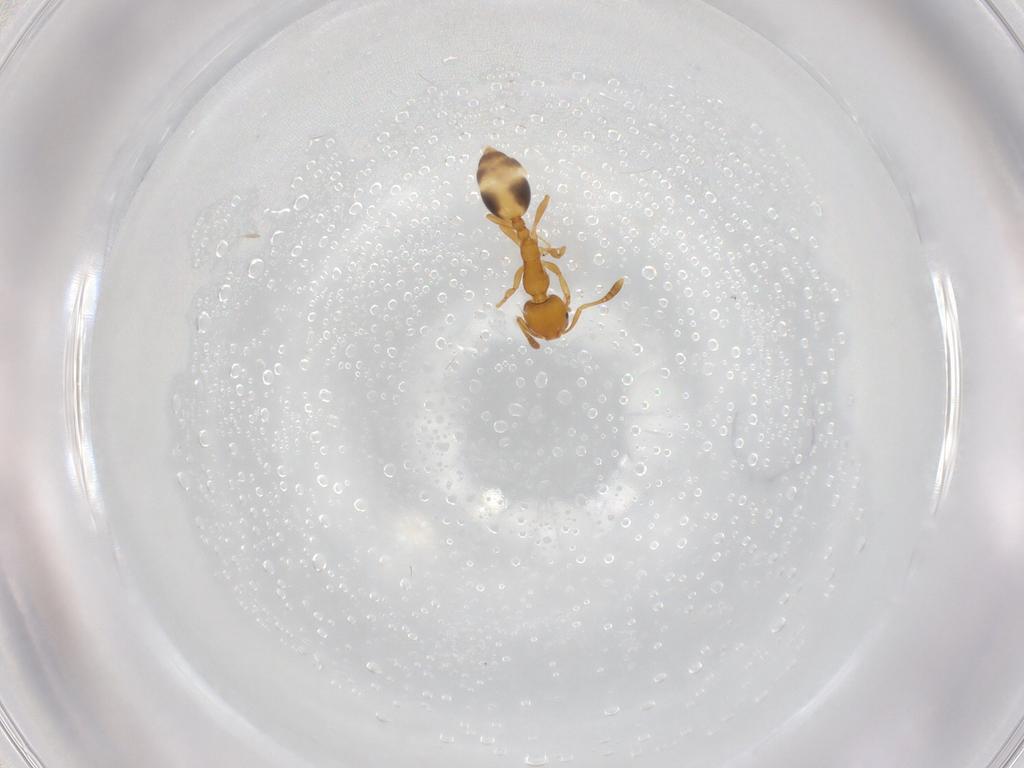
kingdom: Animalia
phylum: Arthropoda
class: Insecta
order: Hymenoptera
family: Formicidae
